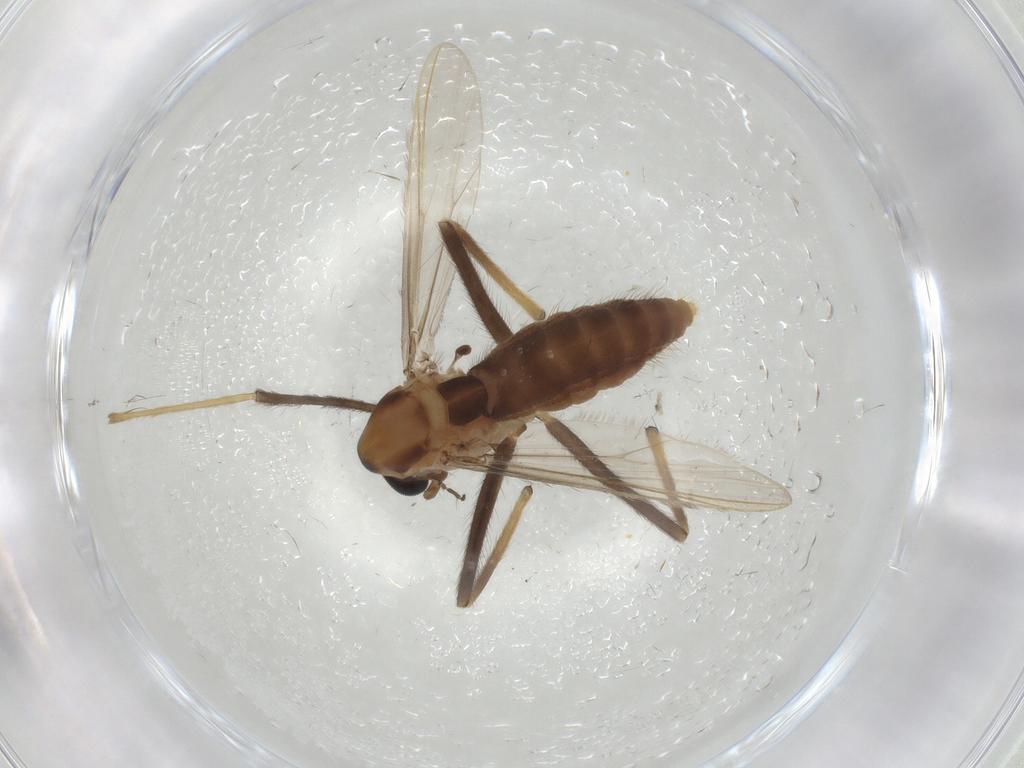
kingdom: Animalia
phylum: Arthropoda
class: Insecta
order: Diptera
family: Chironomidae
